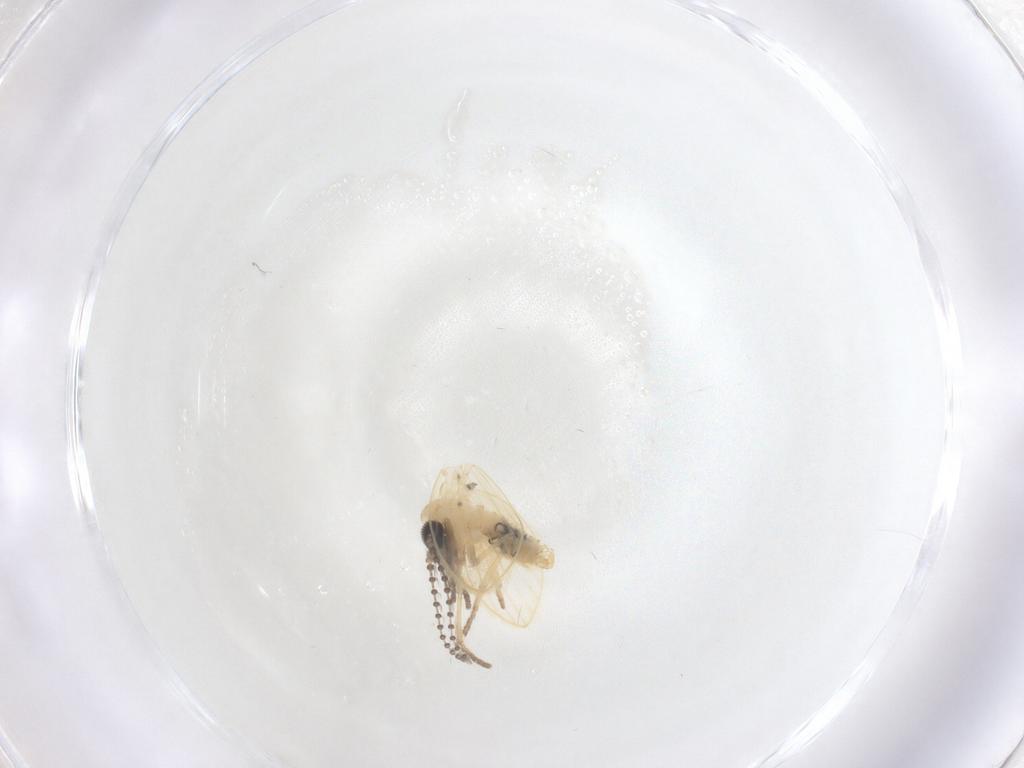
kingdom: Animalia
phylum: Arthropoda
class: Insecta
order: Diptera
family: Psychodidae
